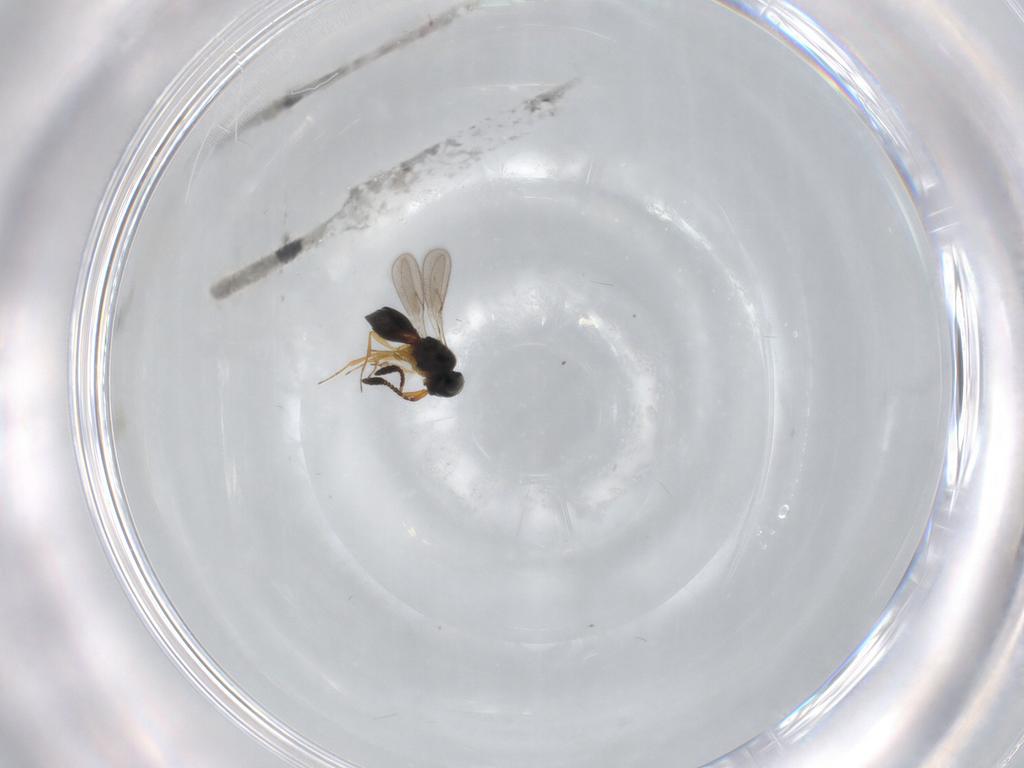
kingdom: Animalia
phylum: Arthropoda
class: Insecta
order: Hymenoptera
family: Scelionidae
